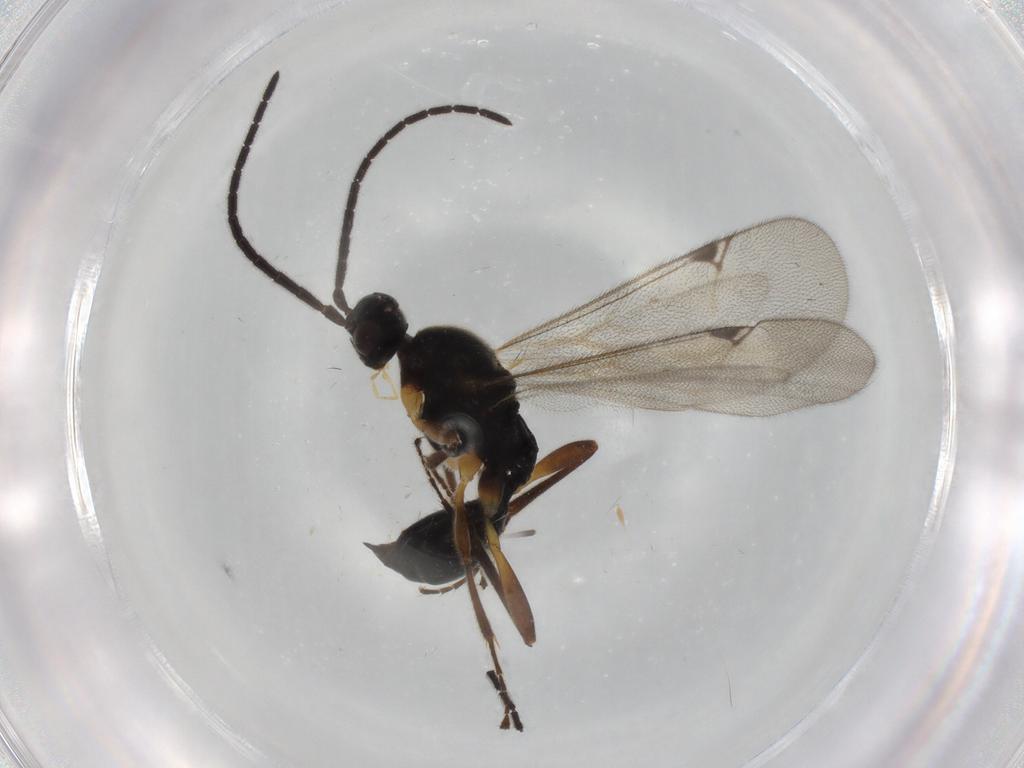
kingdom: Animalia
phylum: Arthropoda
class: Insecta
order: Hymenoptera
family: Proctotrupidae
